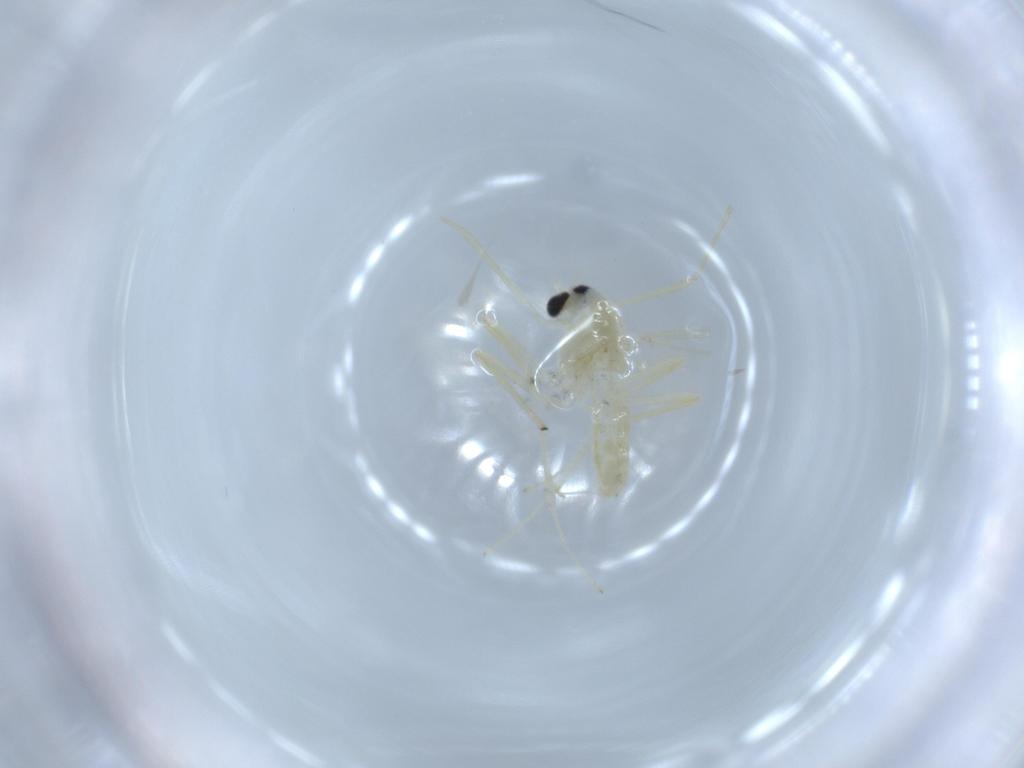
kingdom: Animalia
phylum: Arthropoda
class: Insecta
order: Diptera
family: Chironomidae
